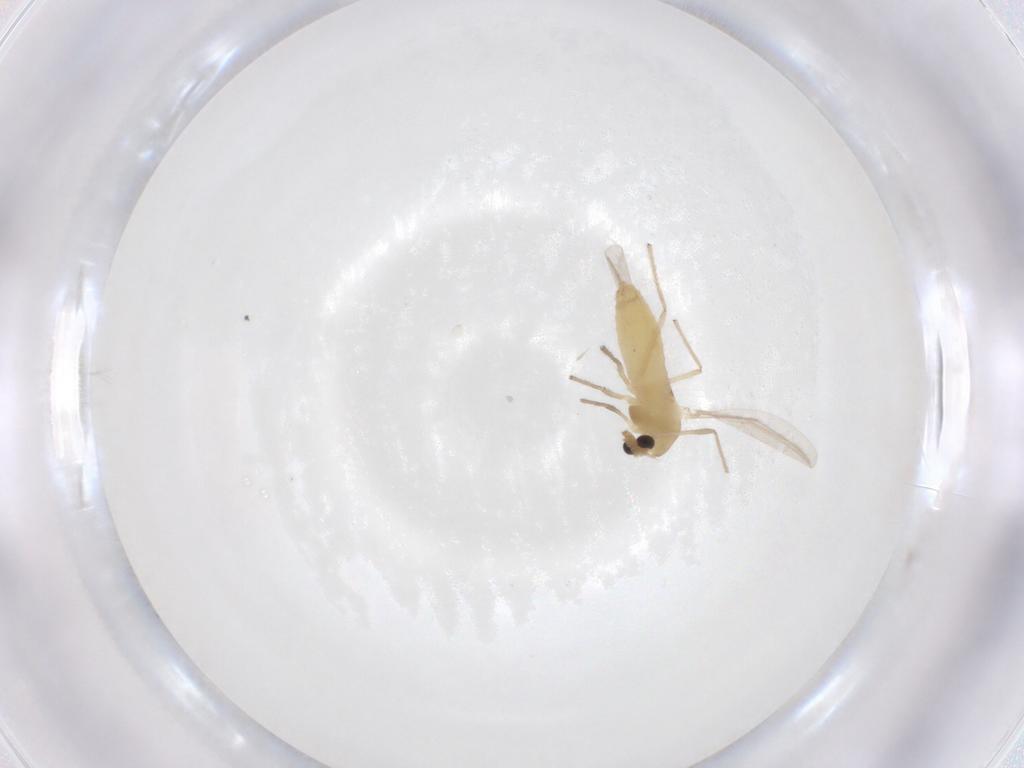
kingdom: Animalia
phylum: Arthropoda
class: Insecta
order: Diptera
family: Chironomidae
